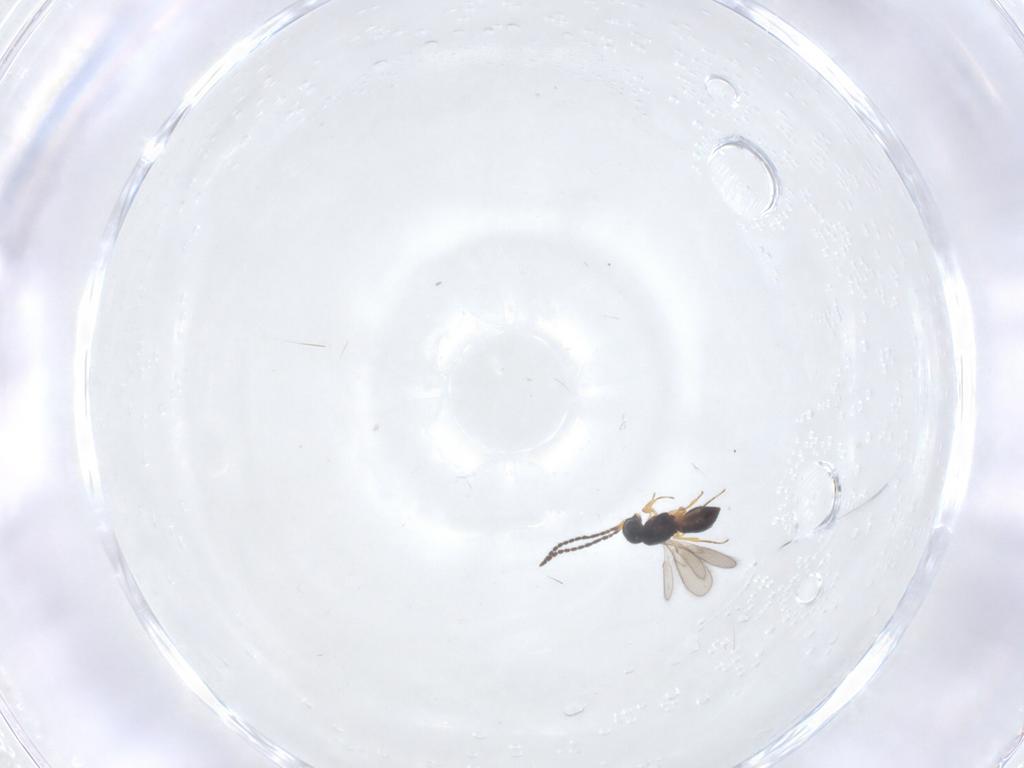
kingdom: Animalia
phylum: Arthropoda
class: Insecta
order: Hymenoptera
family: Scelionidae
